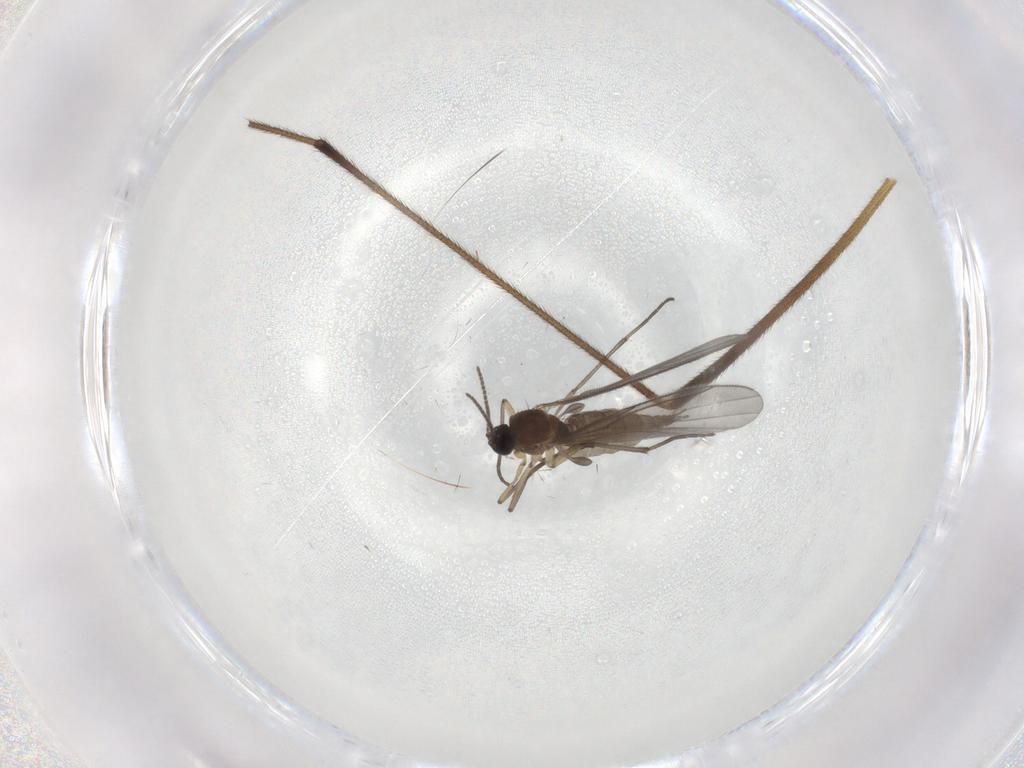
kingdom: Animalia
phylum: Arthropoda
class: Insecta
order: Diptera
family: Sciaridae
